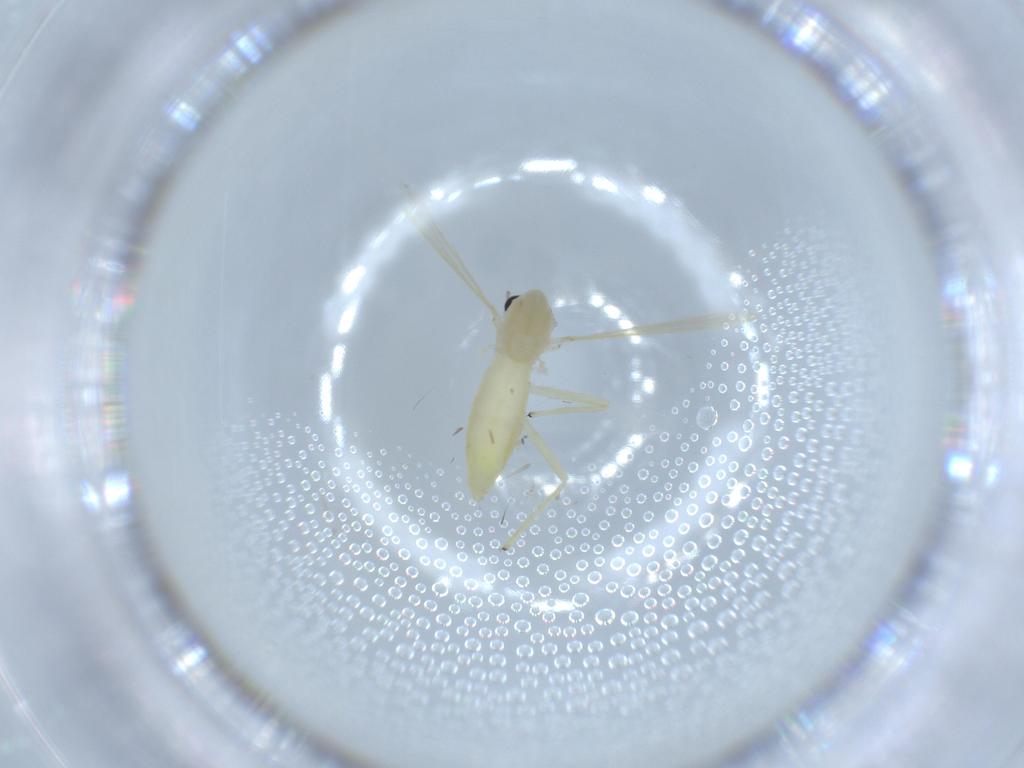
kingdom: Animalia
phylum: Arthropoda
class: Insecta
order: Diptera
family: Chironomidae
